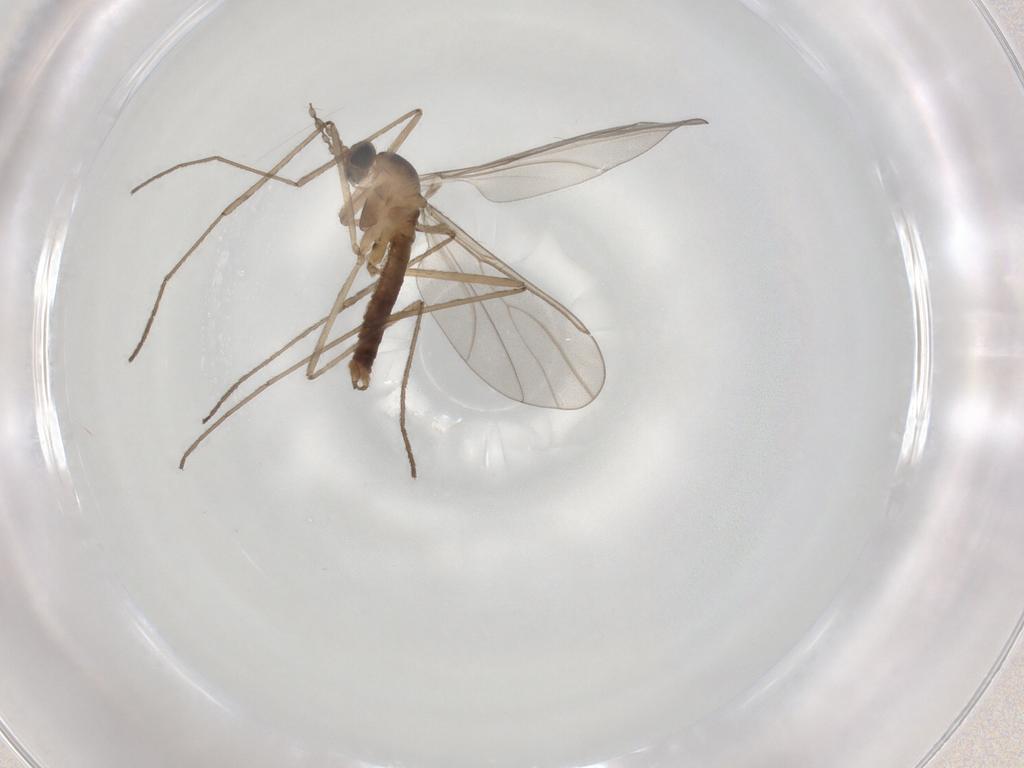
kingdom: Animalia
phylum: Arthropoda
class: Insecta
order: Diptera
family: Cecidomyiidae
